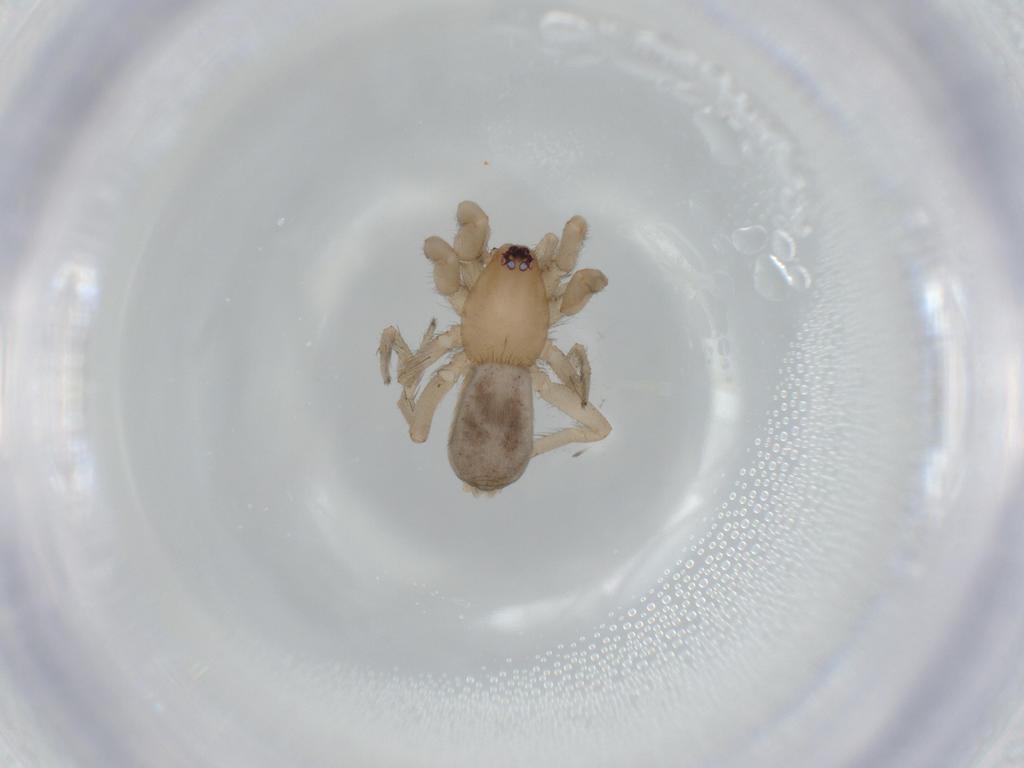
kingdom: Animalia
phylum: Arthropoda
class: Arachnida
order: Araneae
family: Gnaphosidae
